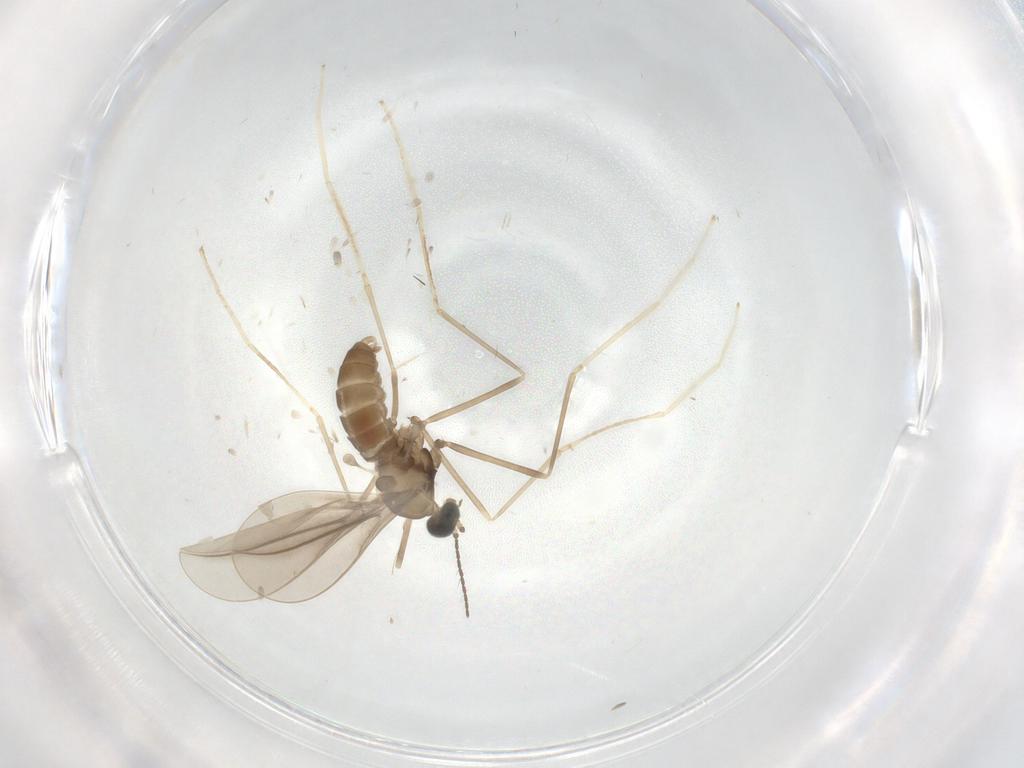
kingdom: Animalia
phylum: Arthropoda
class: Insecta
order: Diptera
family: Cecidomyiidae
